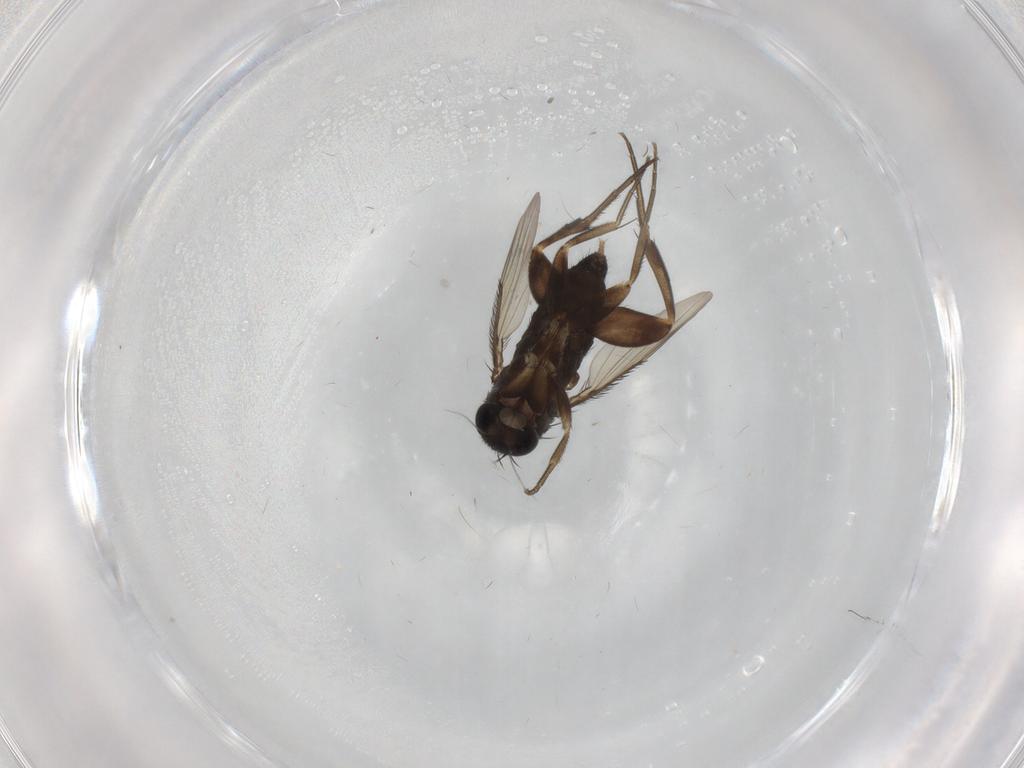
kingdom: Animalia
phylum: Arthropoda
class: Insecta
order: Diptera
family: Phoridae
